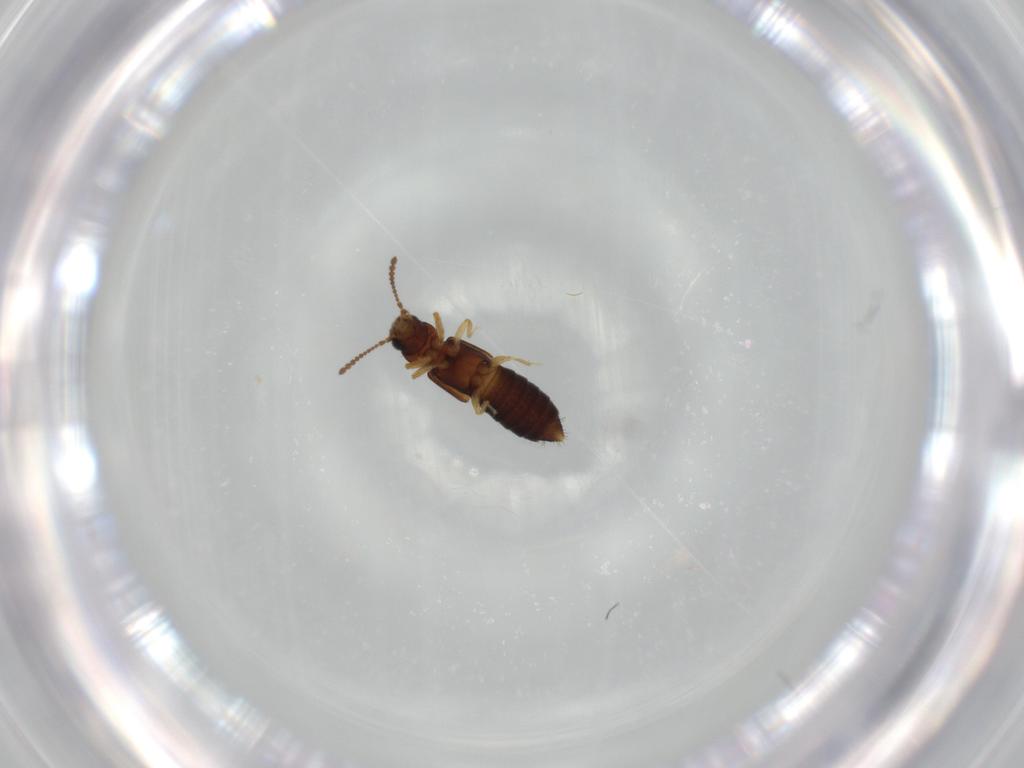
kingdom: Animalia
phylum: Arthropoda
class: Insecta
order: Coleoptera
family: Staphylinidae
